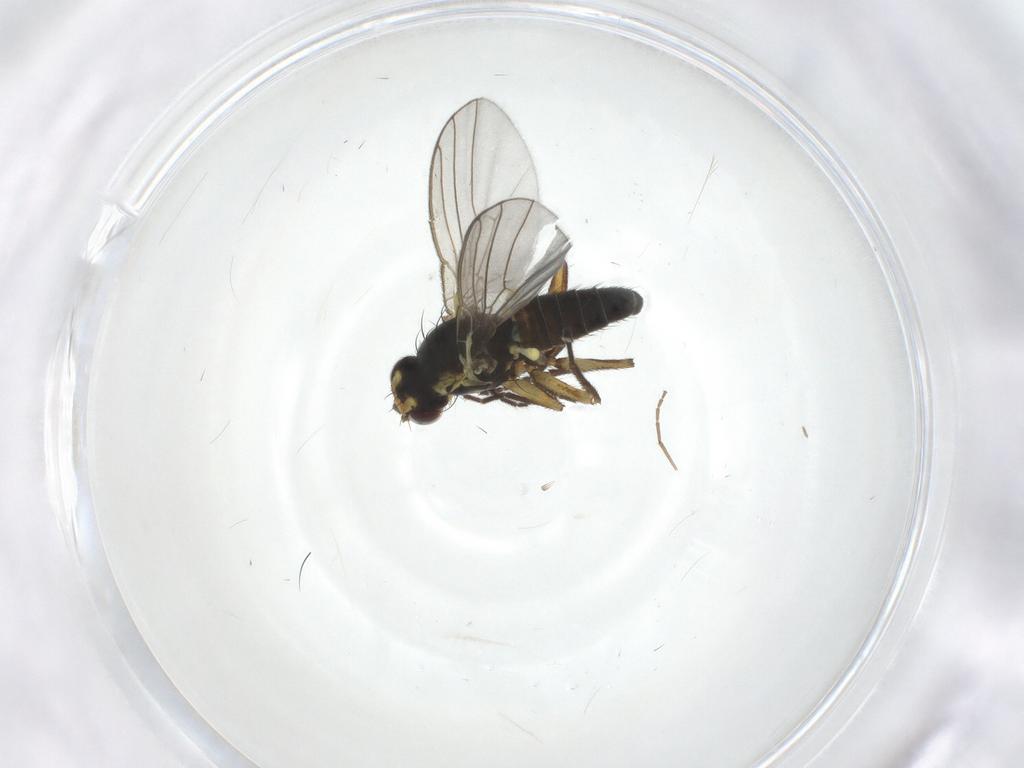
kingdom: Animalia
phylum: Arthropoda
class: Insecta
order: Diptera
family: Agromyzidae
